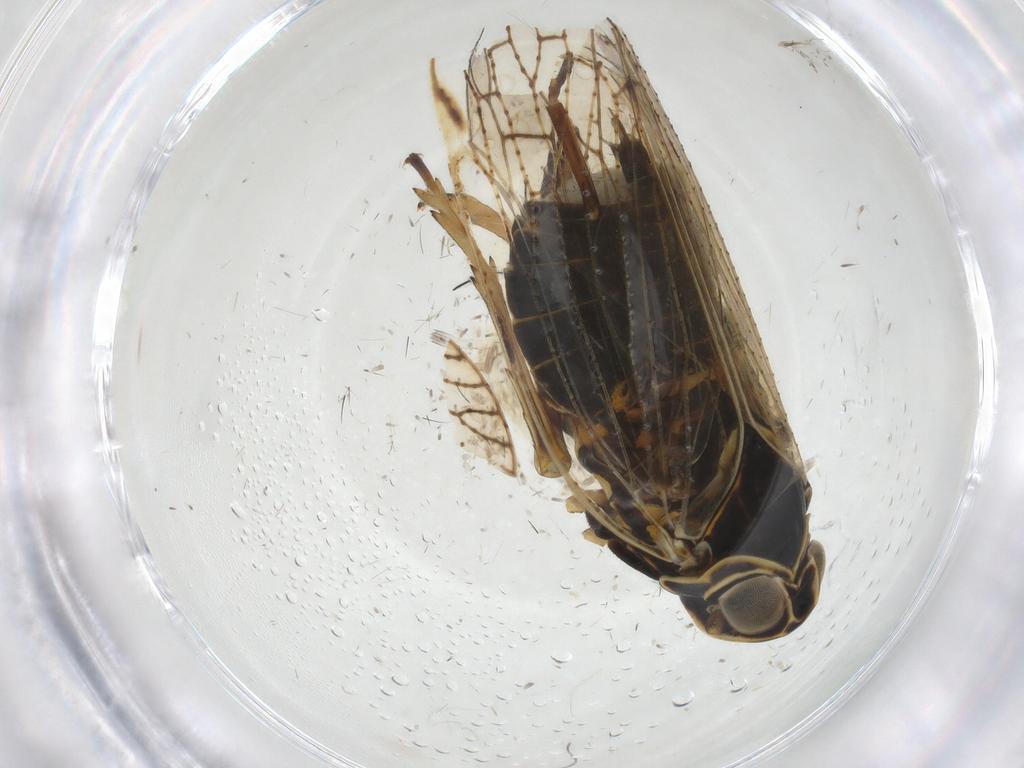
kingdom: Animalia
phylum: Arthropoda
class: Insecta
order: Hemiptera
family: Cixiidae
